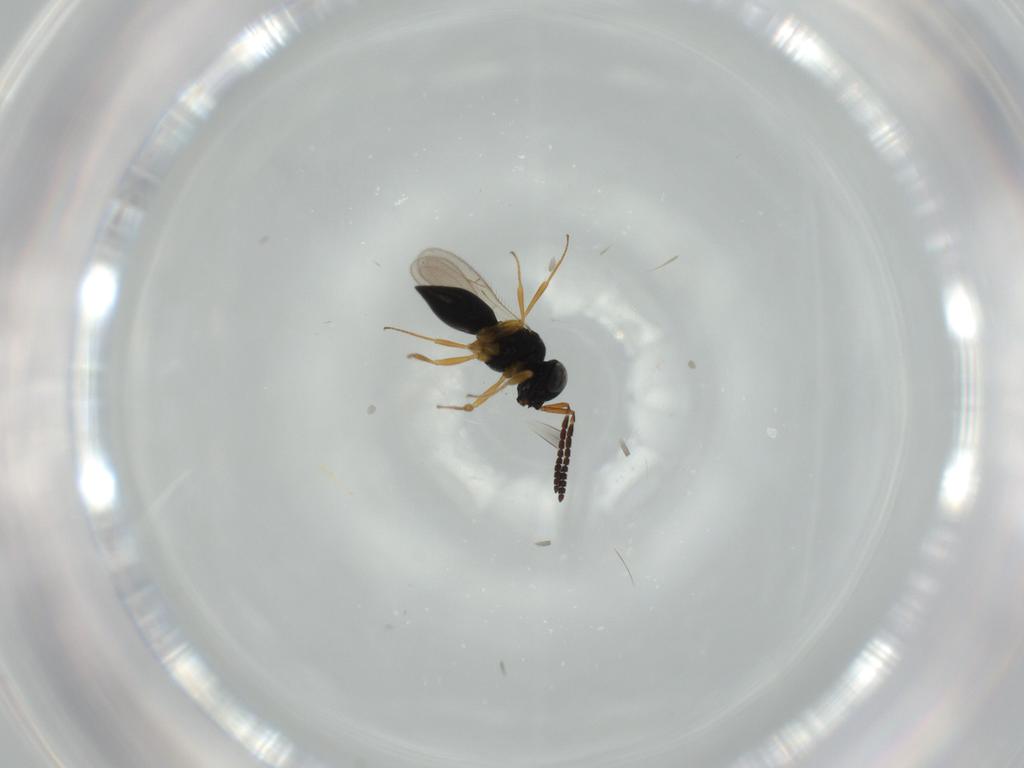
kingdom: Animalia
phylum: Arthropoda
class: Insecta
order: Hymenoptera
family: Scelionidae
